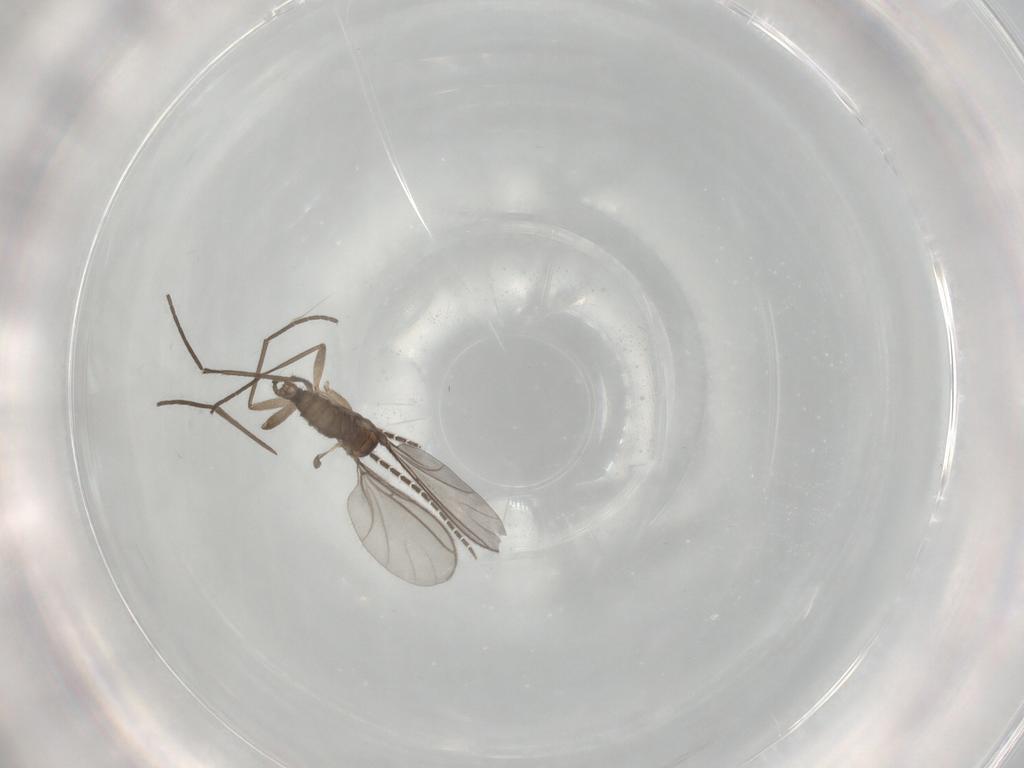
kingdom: Animalia
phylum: Arthropoda
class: Insecta
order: Diptera
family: Sciaridae
